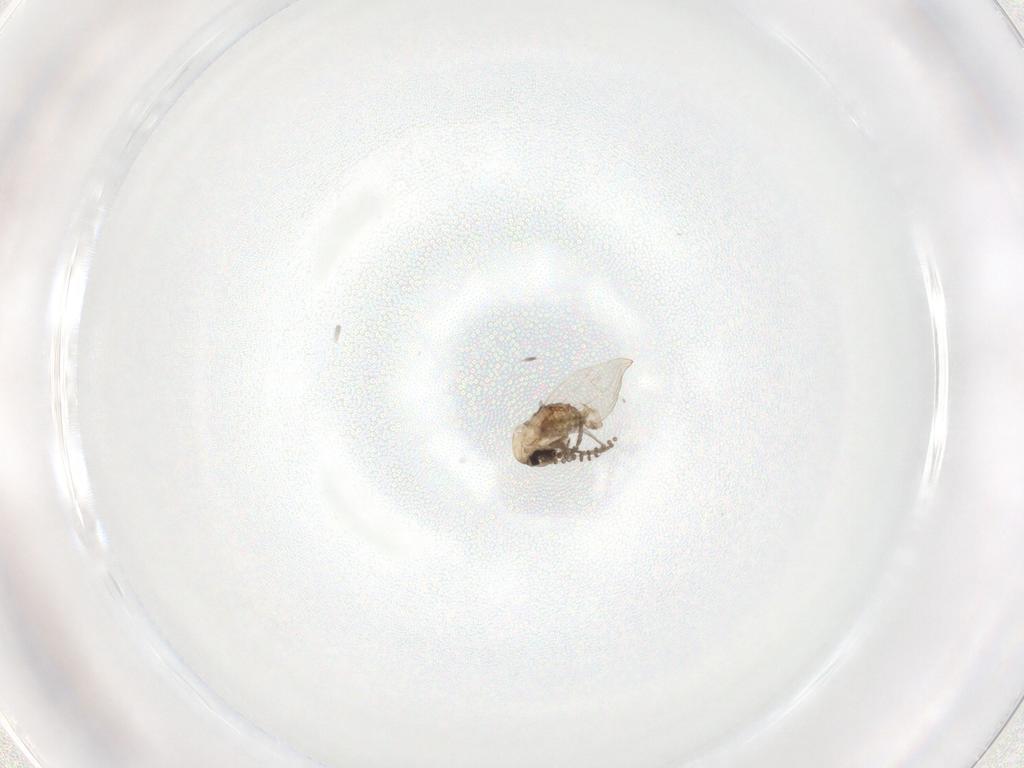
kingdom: Animalia
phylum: Arthropoda
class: Insecta
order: Diptera
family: Psychodidae
